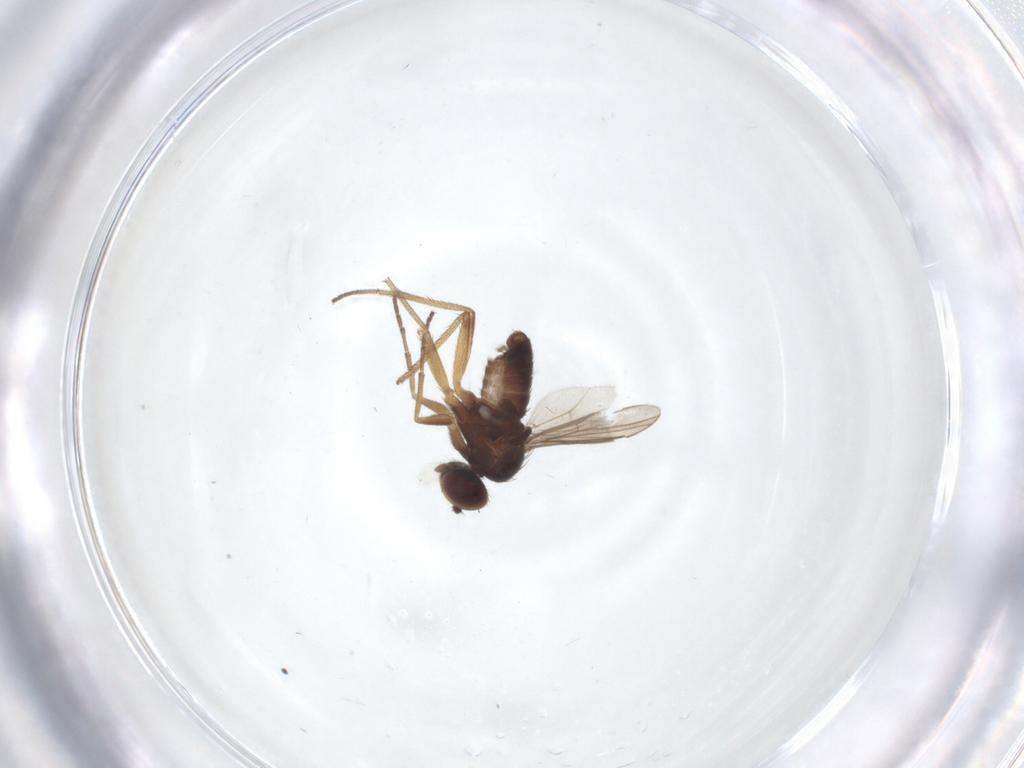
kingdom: Animalia
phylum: Arthropoda
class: Insecta
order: Diptera
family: Dolichopodidae
